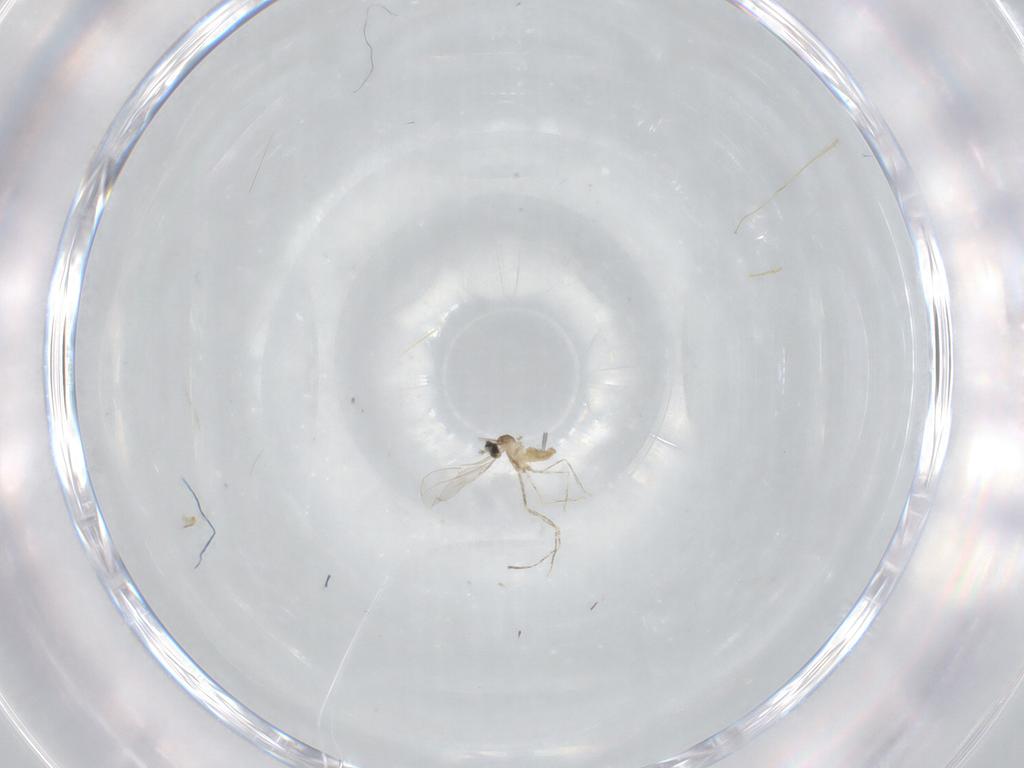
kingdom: Animalia
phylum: Arthropoda
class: Insecta
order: Diptera
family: Cecidomyiidae
